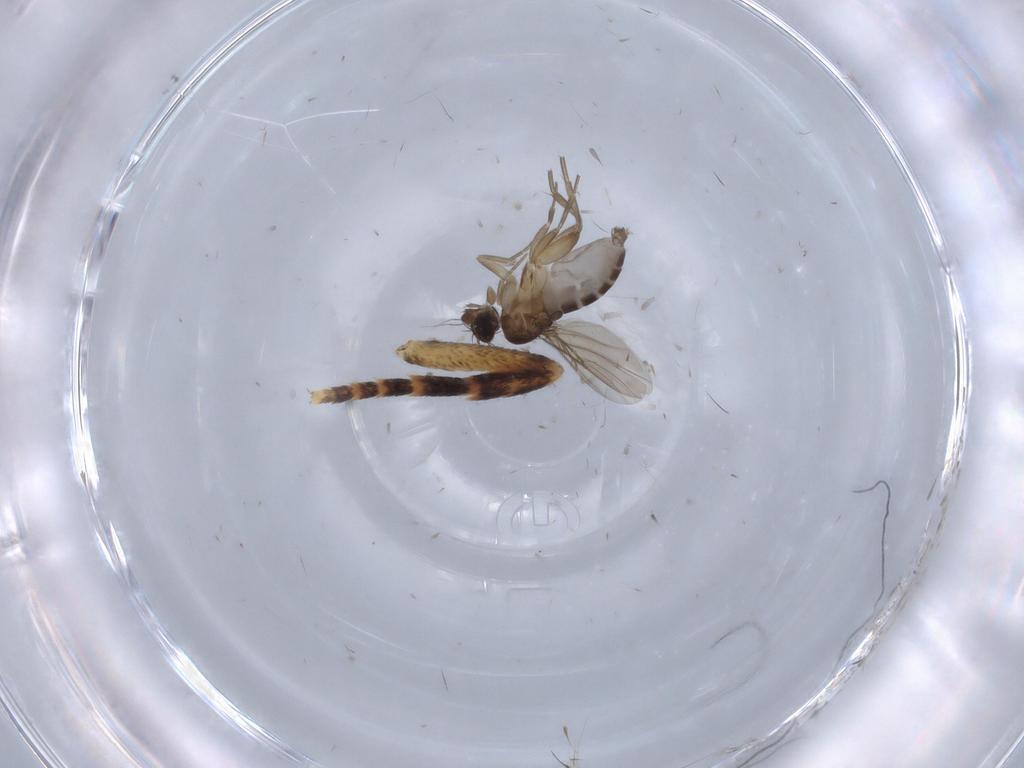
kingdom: Animalia
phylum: Arthropoda
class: Insecta
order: Diptera
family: Phoridae
